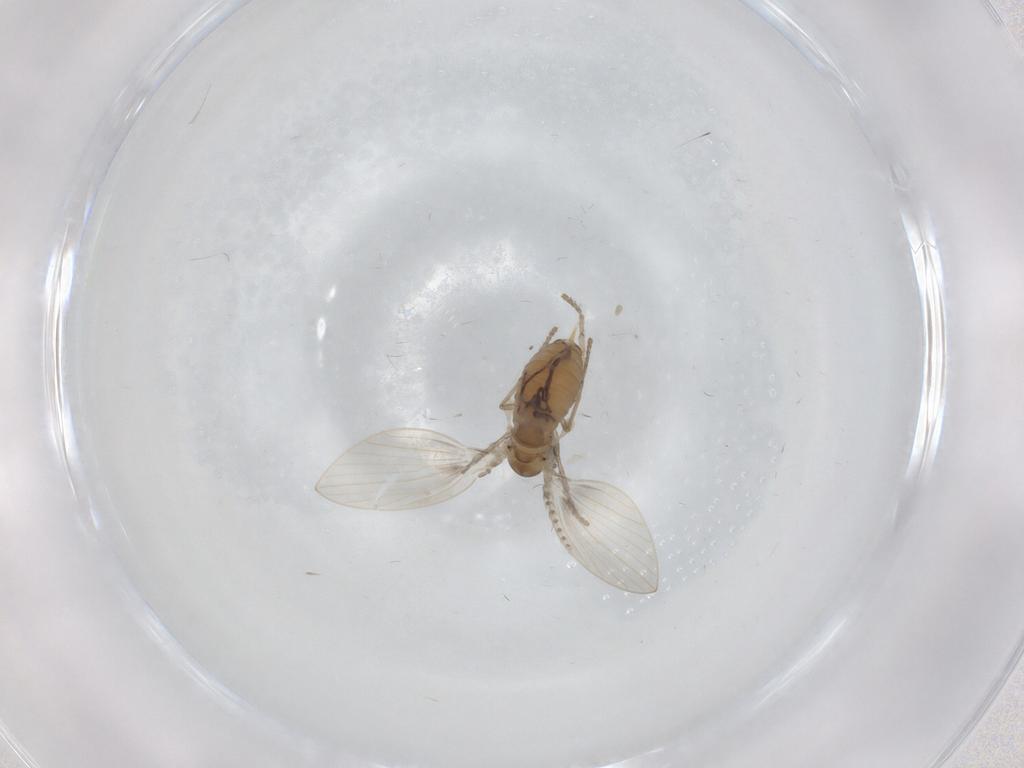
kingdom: Animalia
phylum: Arthropoda
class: Insecta
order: Diptera
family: Psychodidae
